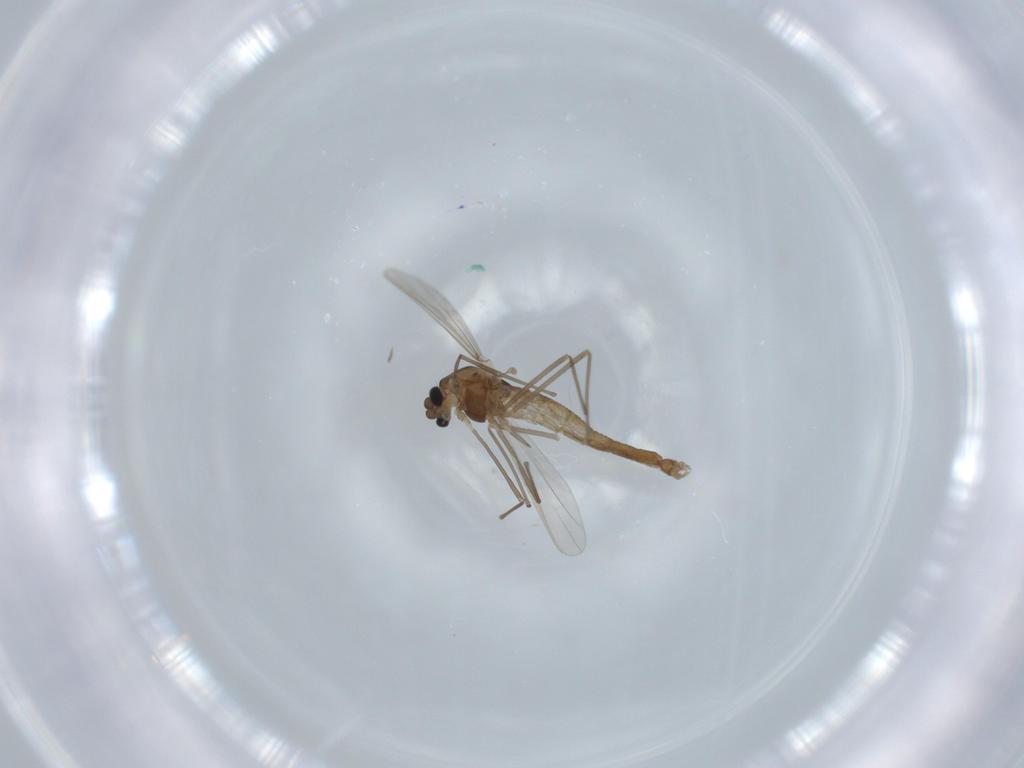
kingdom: Animalia
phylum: Arthropoda
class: Insecta
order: Diptera
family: Chironomidae
